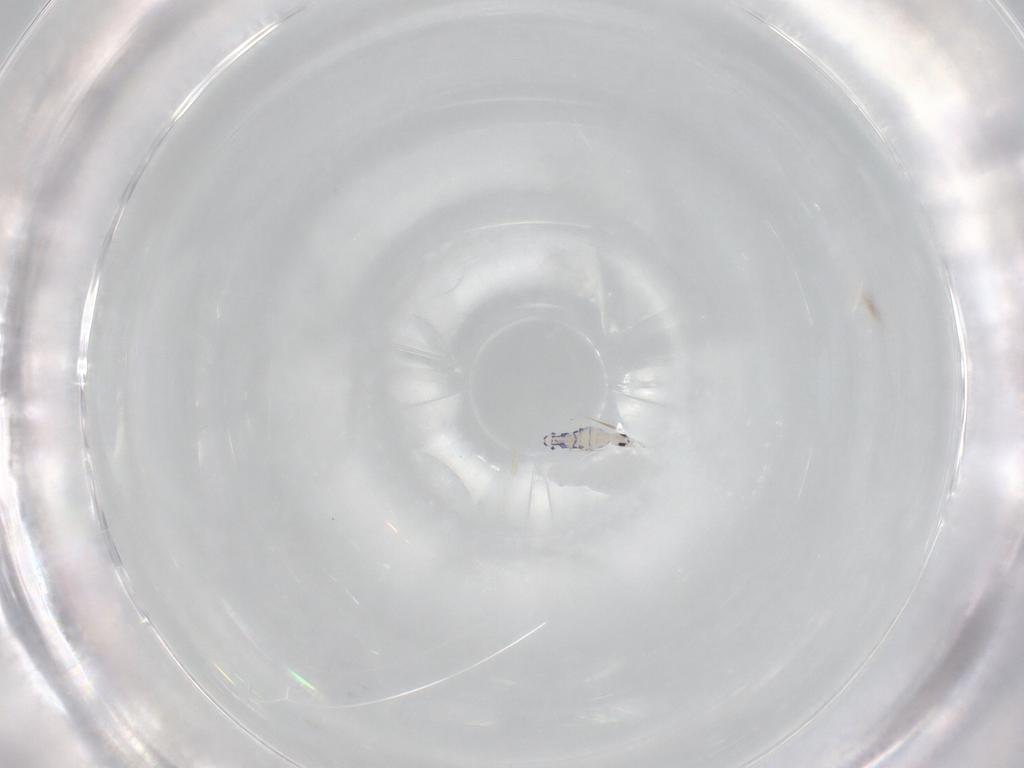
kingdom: Animalia
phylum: Arthropoda
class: Collembola
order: Entomobryomorpha
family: Entomobryidae
